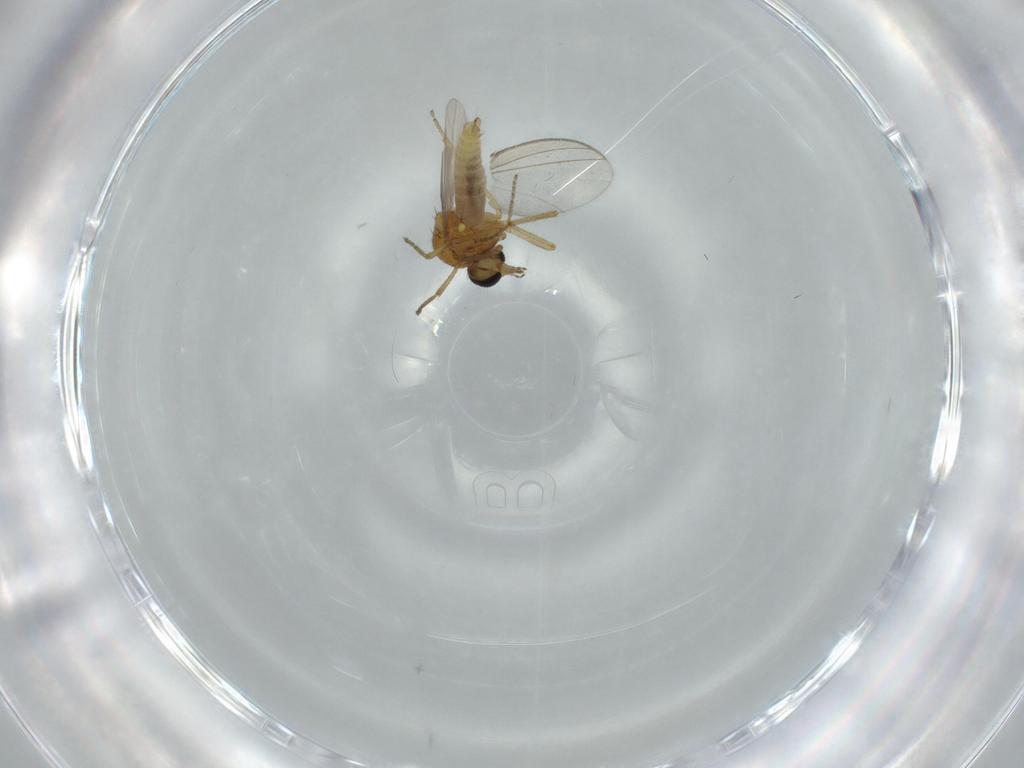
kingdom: Animalia
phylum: Arthropoda
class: Insecta
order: Diptera
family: Ceratopogonidae
